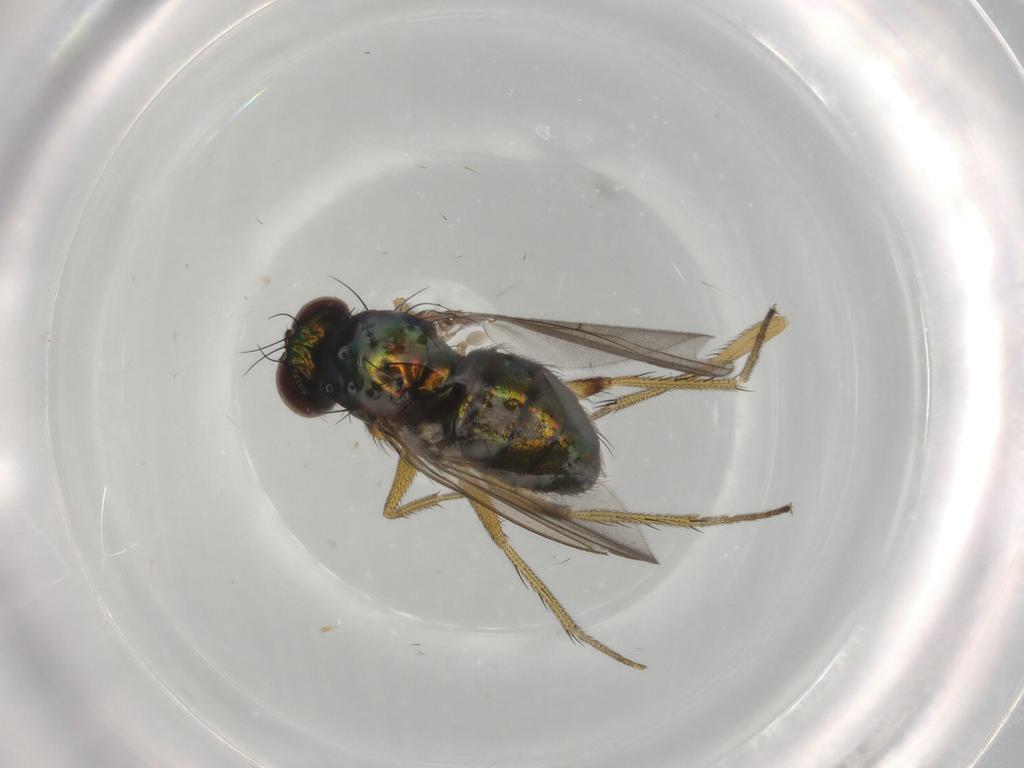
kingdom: Animalia
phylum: Arthropoda
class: Insecta
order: Diptera
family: Dolichopodidae
